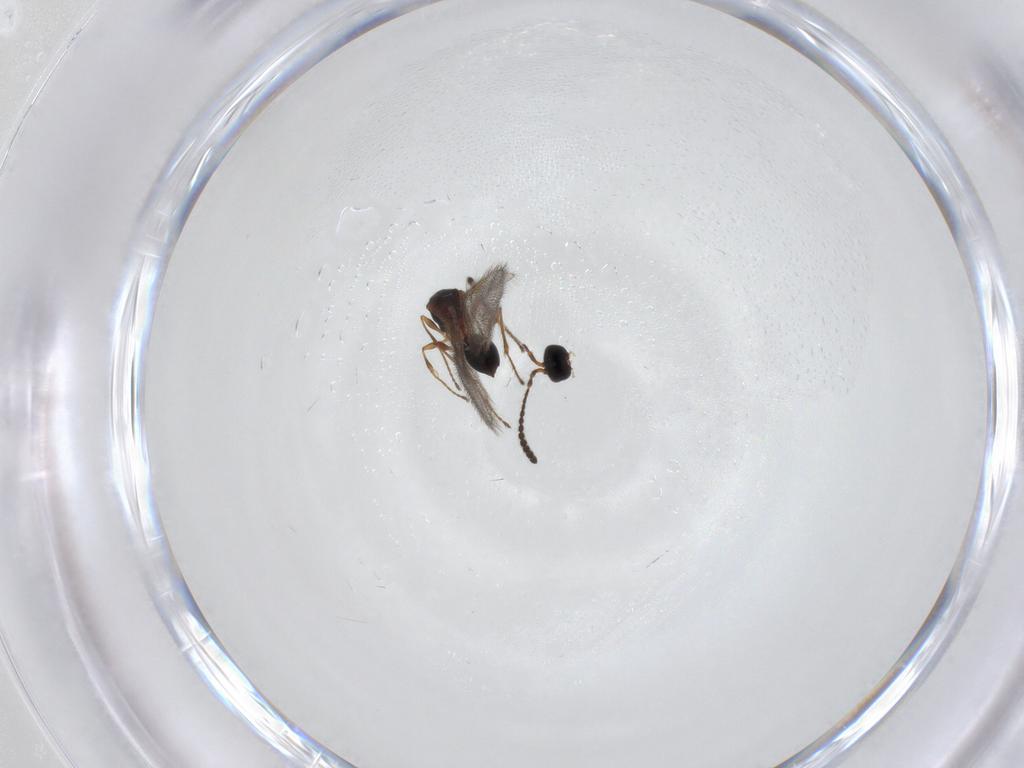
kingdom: Animalia
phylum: Arthropoda
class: Insecta
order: Hymenoptera
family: Diapriidae
